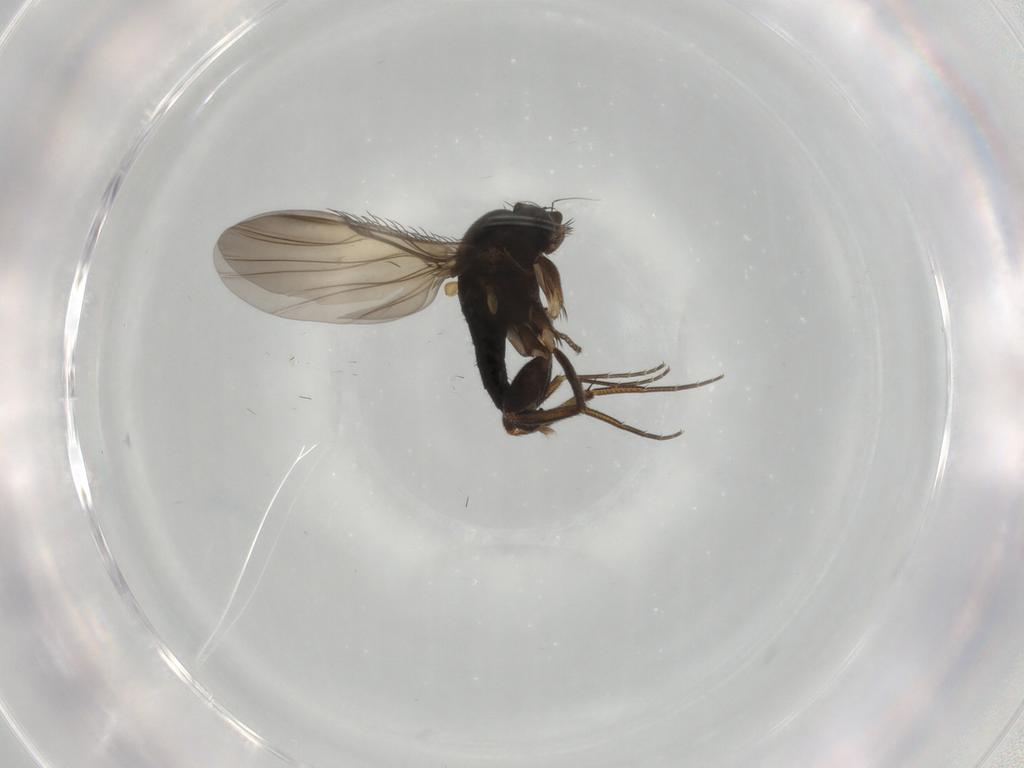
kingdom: Animalia
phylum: Arthropoda
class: Insecta
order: Diptera
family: Phoridae
